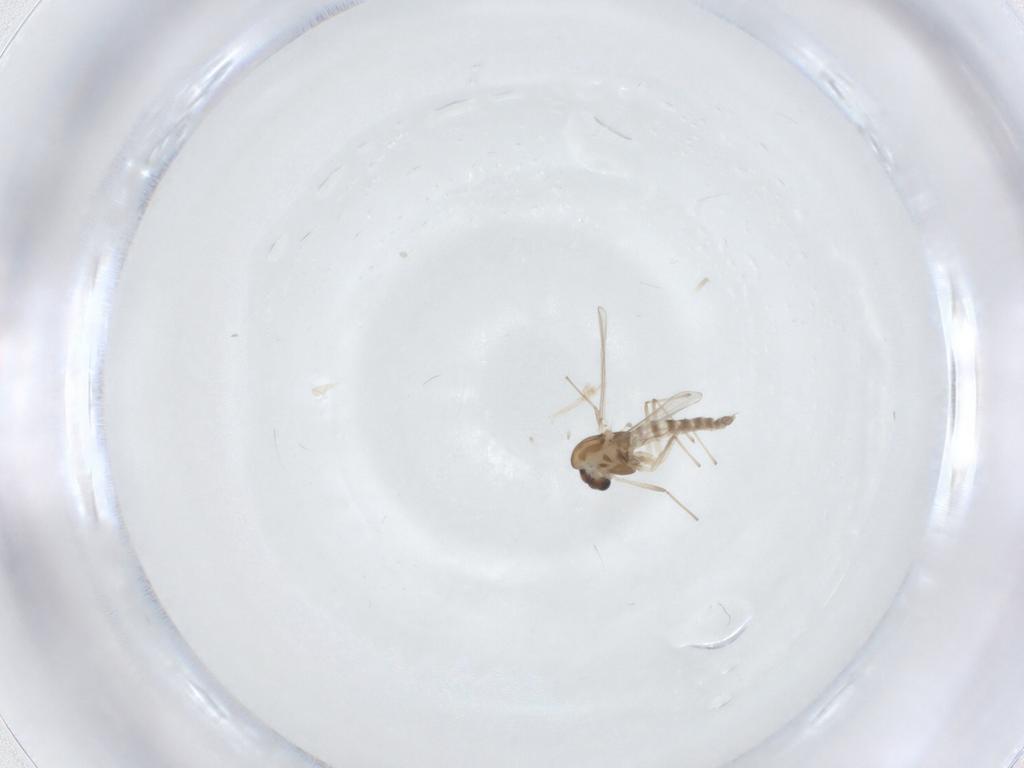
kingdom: Animalia
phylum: Arthropoda
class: Insecta
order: Diptera
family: Chironomidae
